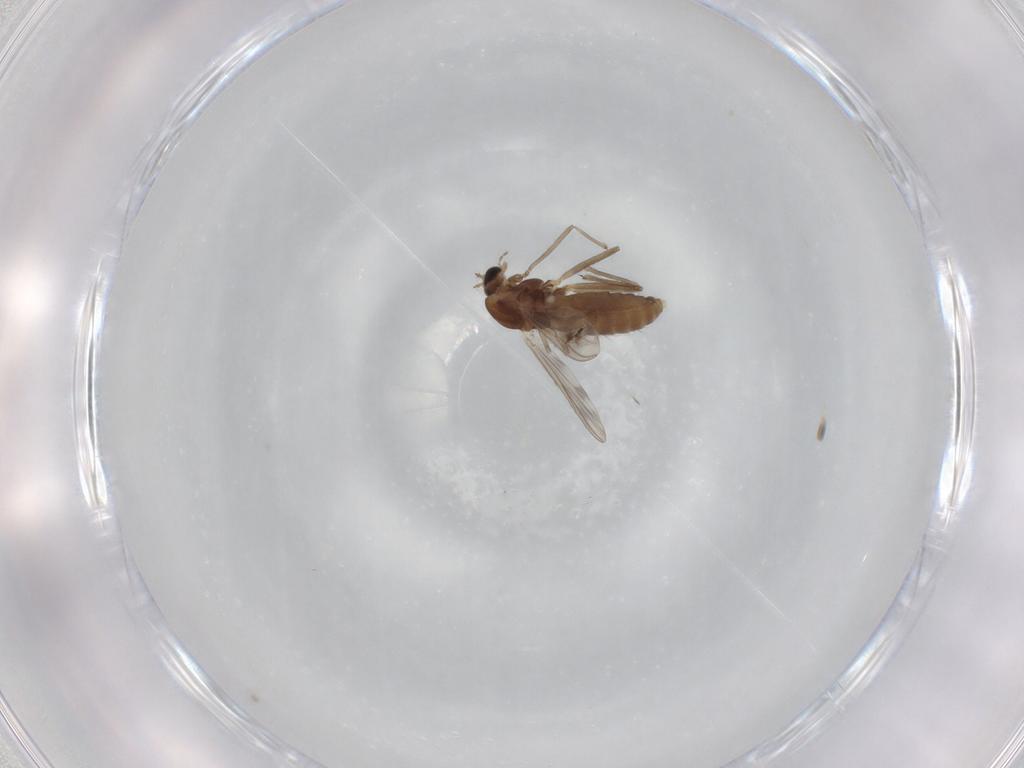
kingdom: Animalia
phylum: Arthropoda
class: Insecta
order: Diptera
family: Chironomidae
